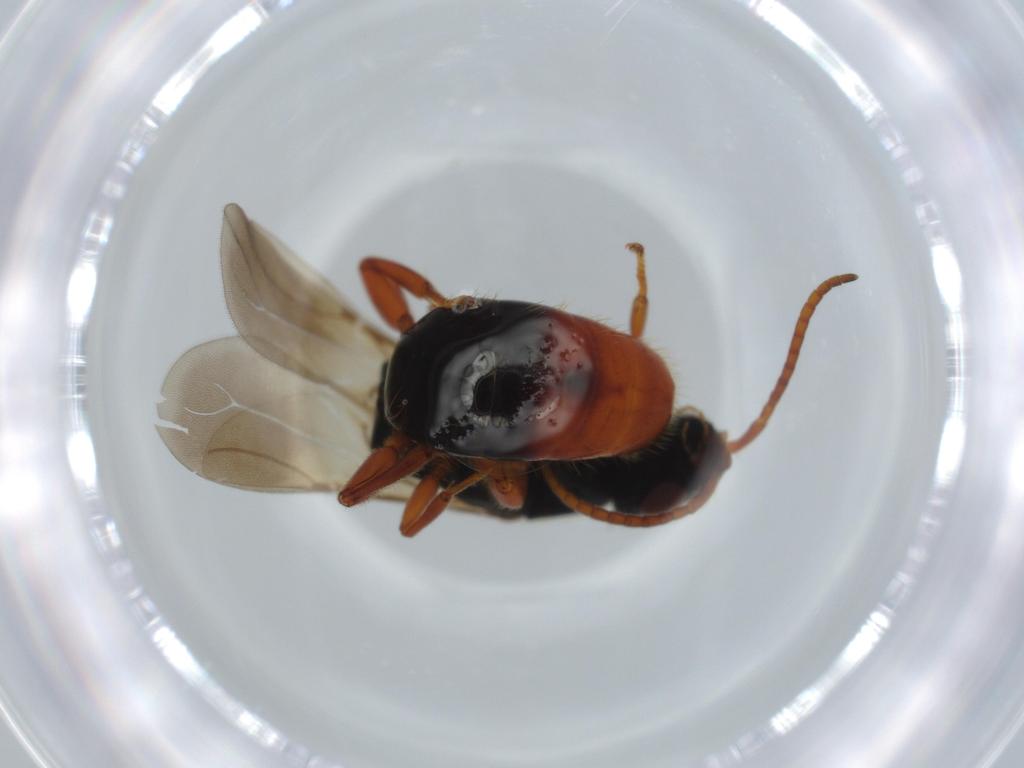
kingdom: Animalia
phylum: Arthropoda
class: Insecta
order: Hymenoptera
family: Bethylidae
